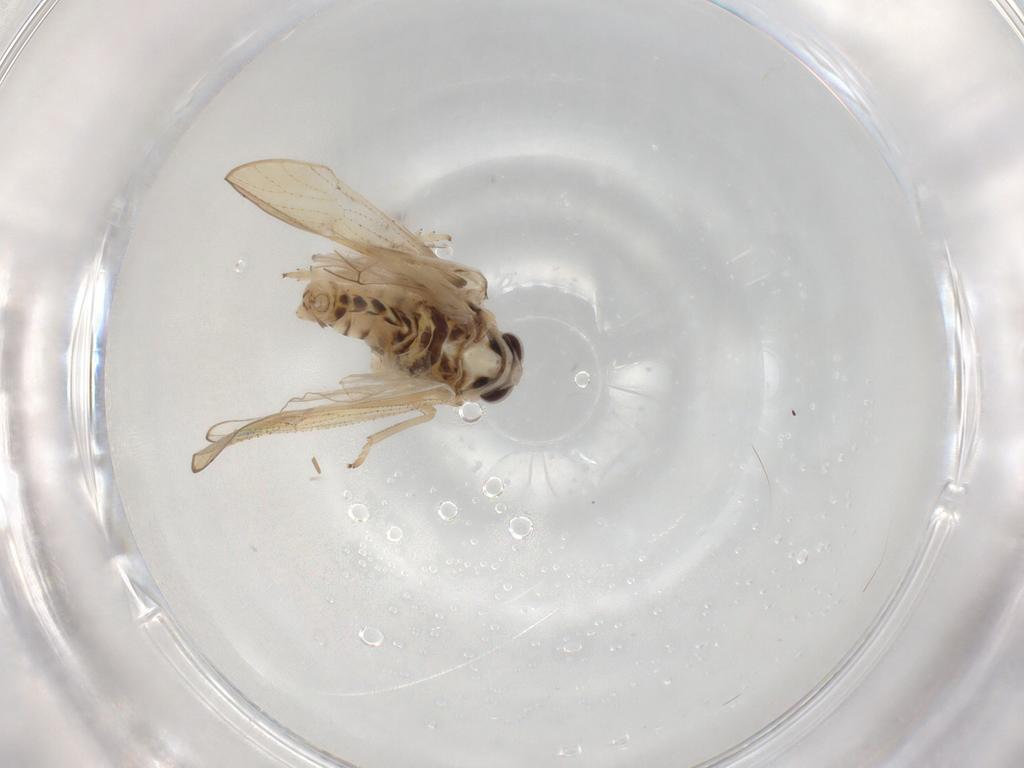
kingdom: Animalia
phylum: Arthropoda
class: Insecta
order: Hemiptera
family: Delphacidae
